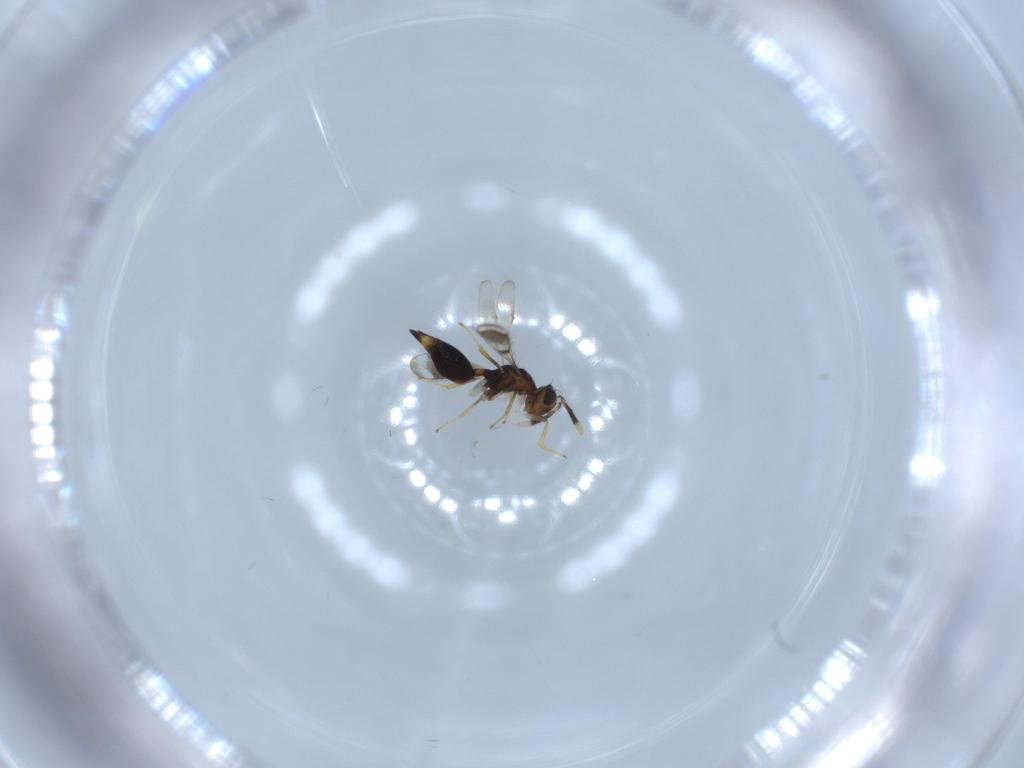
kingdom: Animalia
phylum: Arthropoda
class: Insecta
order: Hymenoptera
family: Diparidae
